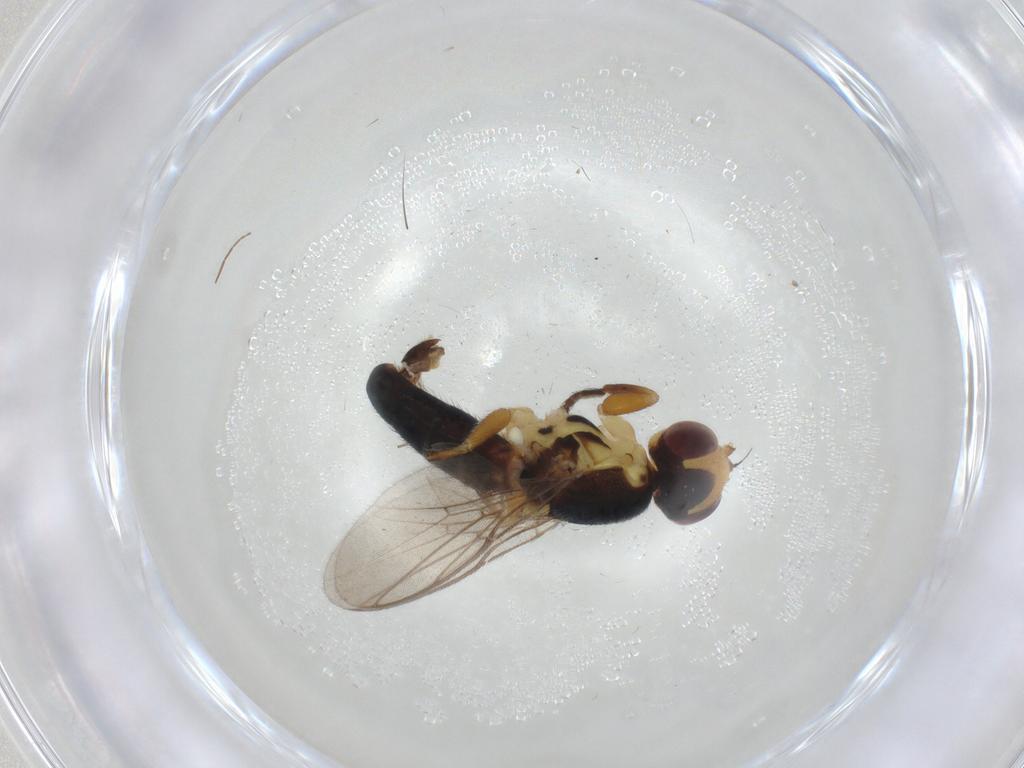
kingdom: Animalia
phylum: Arthropoda
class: Insecta
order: Diptera
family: Chloropidae
